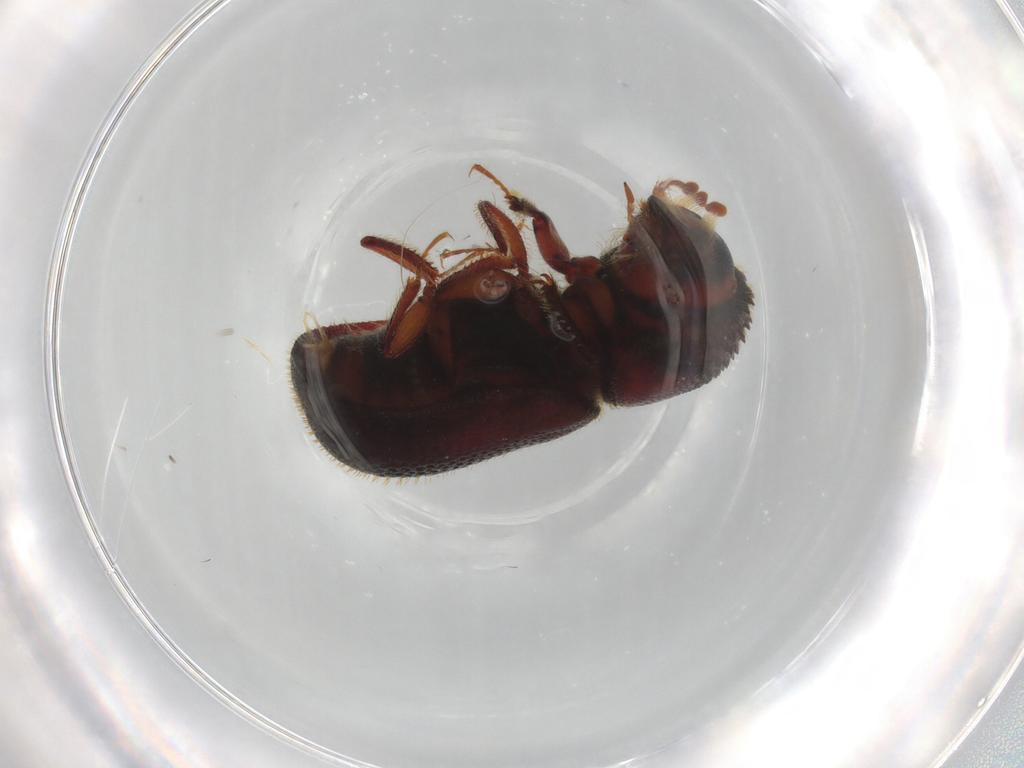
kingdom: Animalia
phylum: Arthropoda
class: Insecta
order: Coleoptera
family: Staphylinidae
